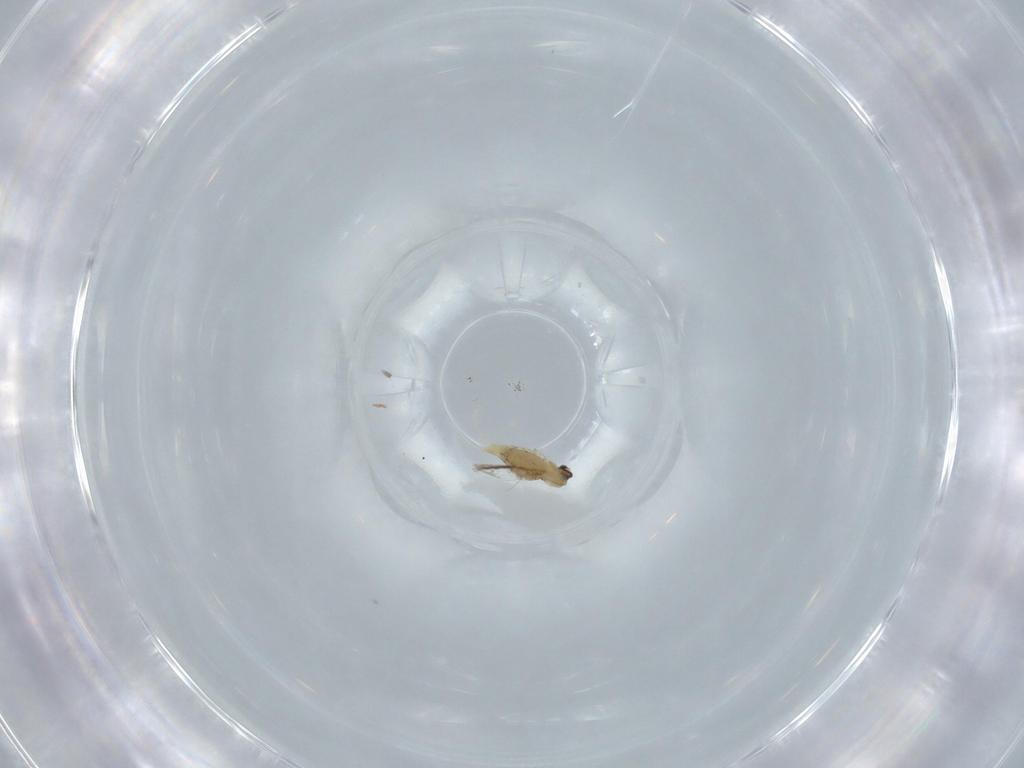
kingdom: Animalia
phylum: Arthropoda
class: Insecta
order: Diptera
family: Cecidomyiidae
